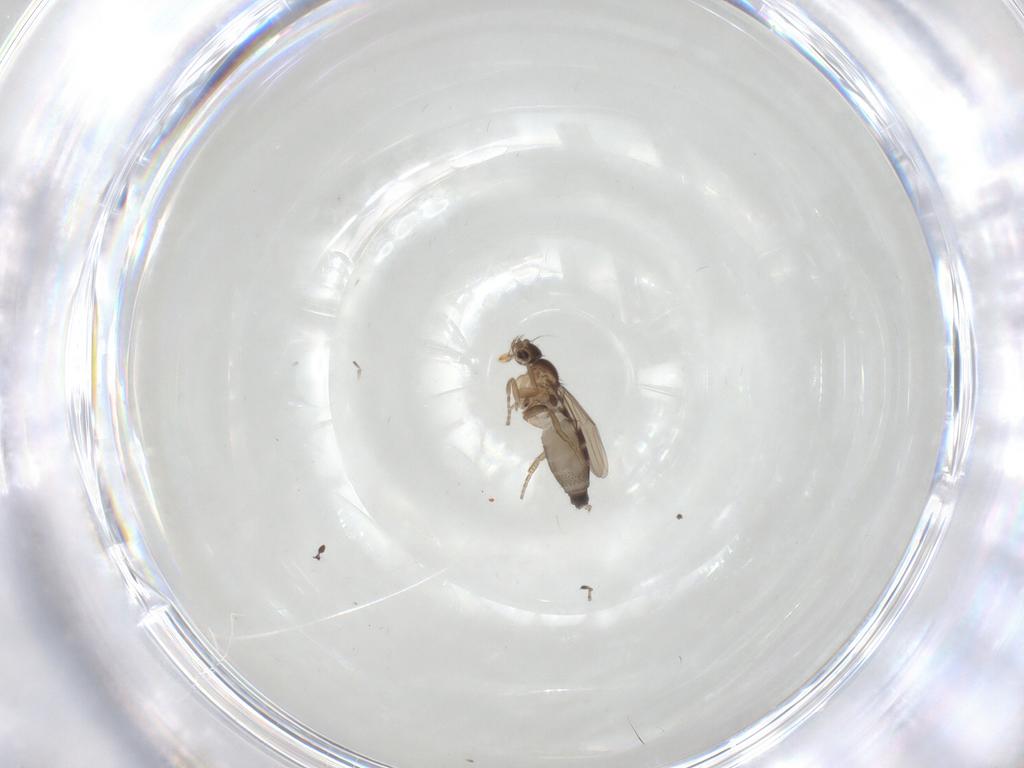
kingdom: Animalia
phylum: Arthropoda
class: Insecta
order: Diptera
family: Phoridae
